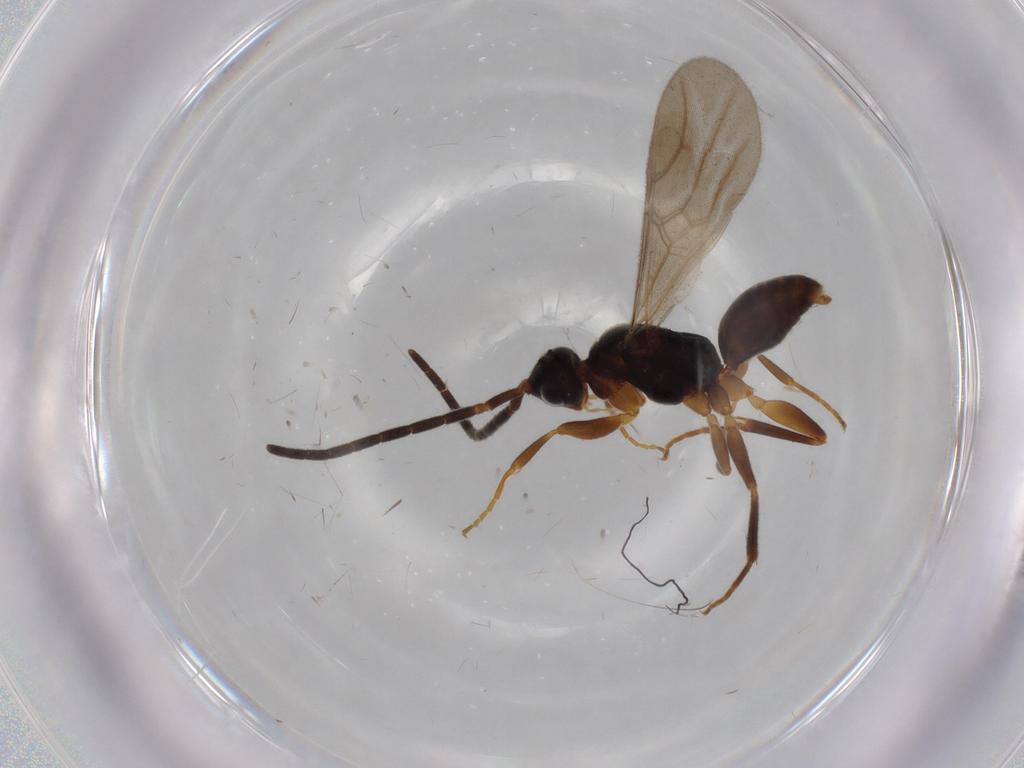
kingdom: Animalia
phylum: Arthropoda
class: Insecta
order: Hymenoptera
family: Embolemidae
